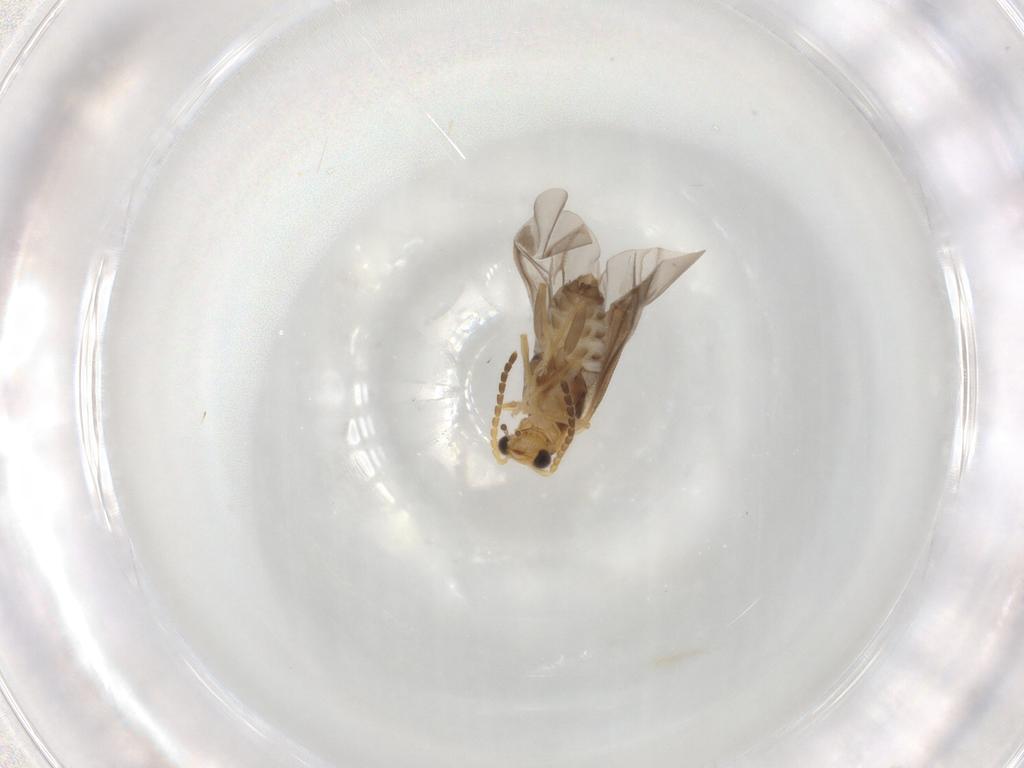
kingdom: Animalia
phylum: Arthropoda
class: Insecta
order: Coleoptera
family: Cantharidae
